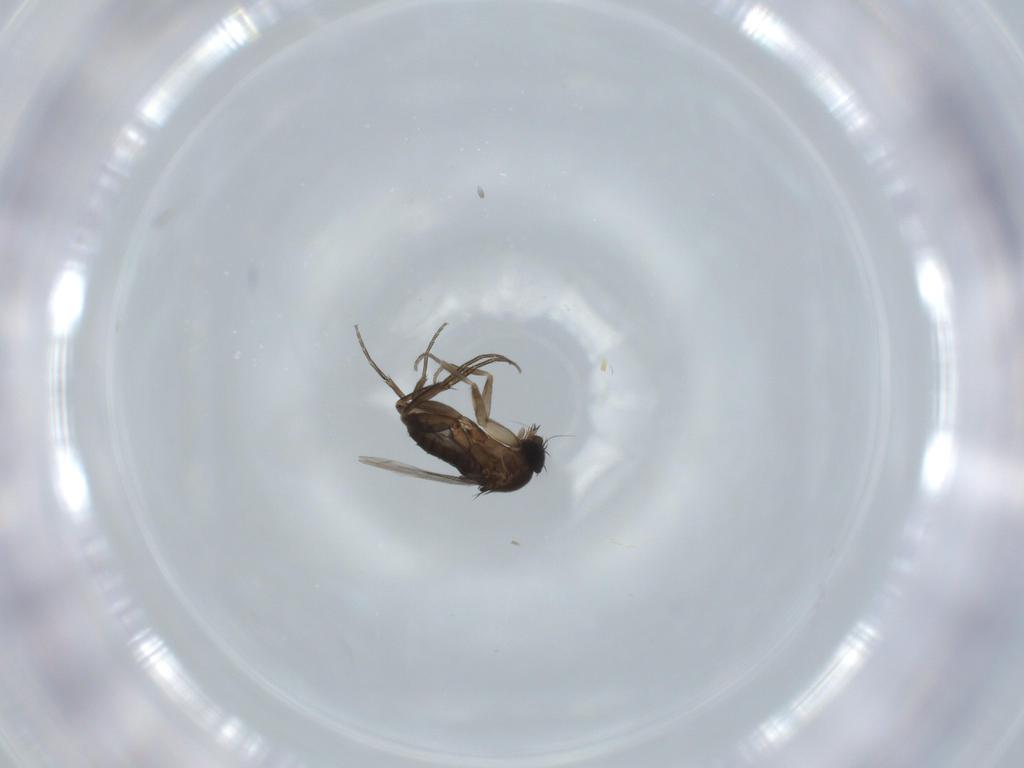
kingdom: Animalia
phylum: Arthropoda
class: Insecta
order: Diptera
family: Phoridae
